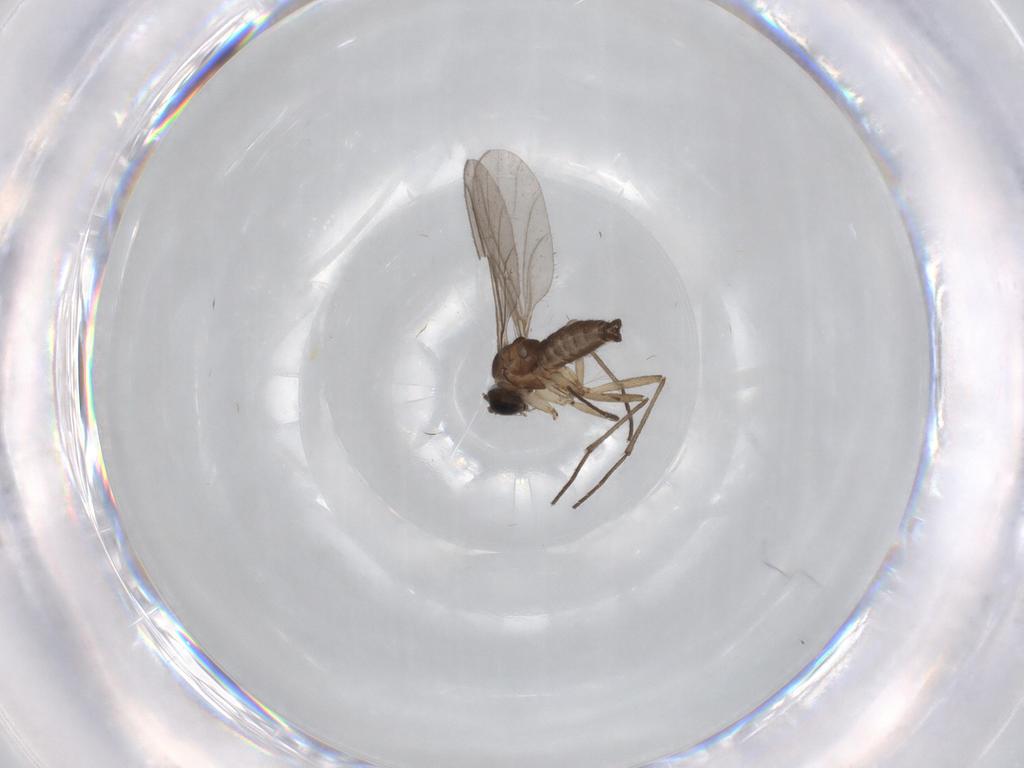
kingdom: Animalia
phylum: Arthropoda
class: Insecta
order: Diptera
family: Sciaridae
